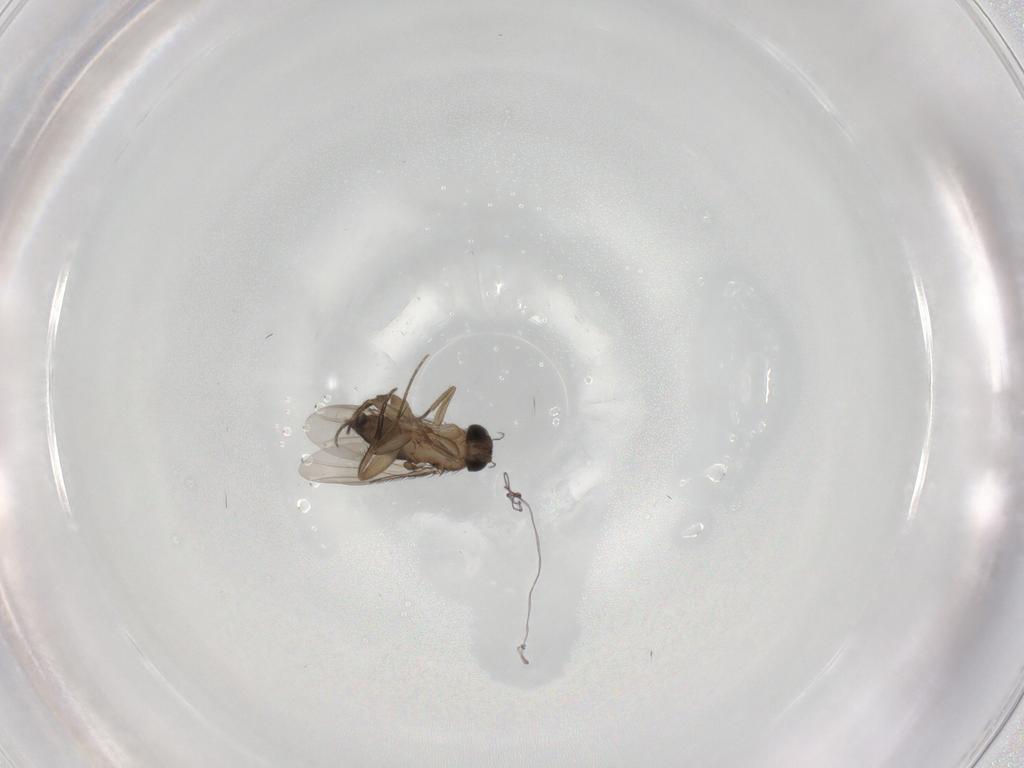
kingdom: Animalia
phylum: Arthropoda
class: Insecta
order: Diptera
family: Phoridae
